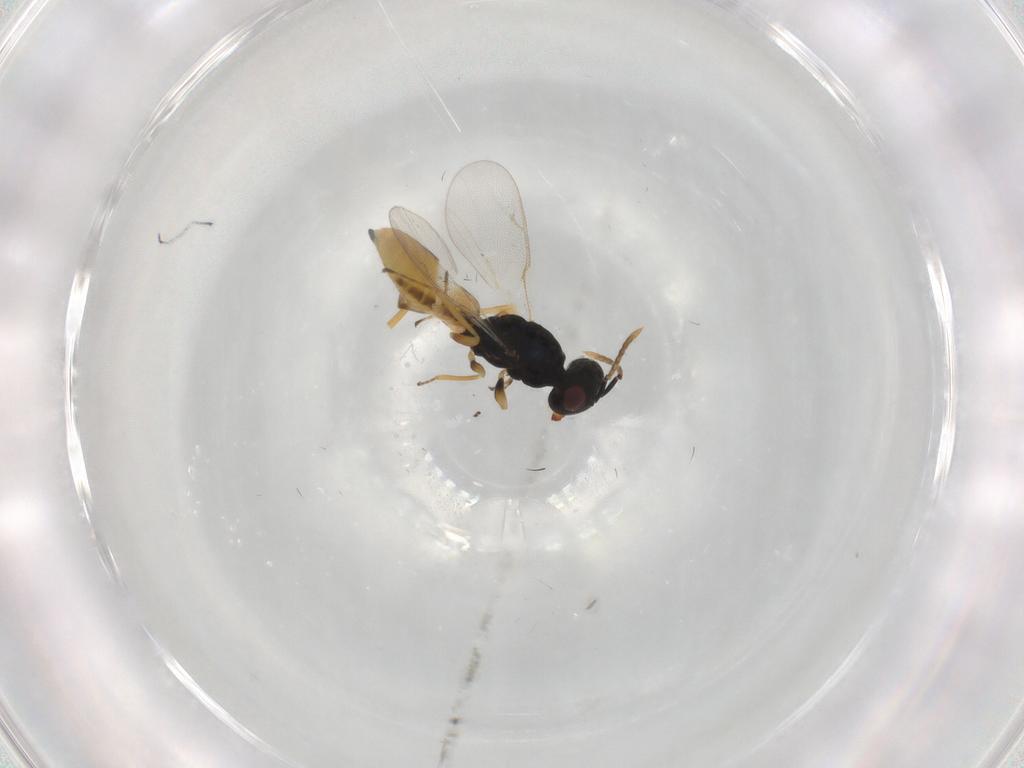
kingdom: Animalia
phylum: Arthropoda
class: Insecta
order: Hymenoptera
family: Pteromalidae
